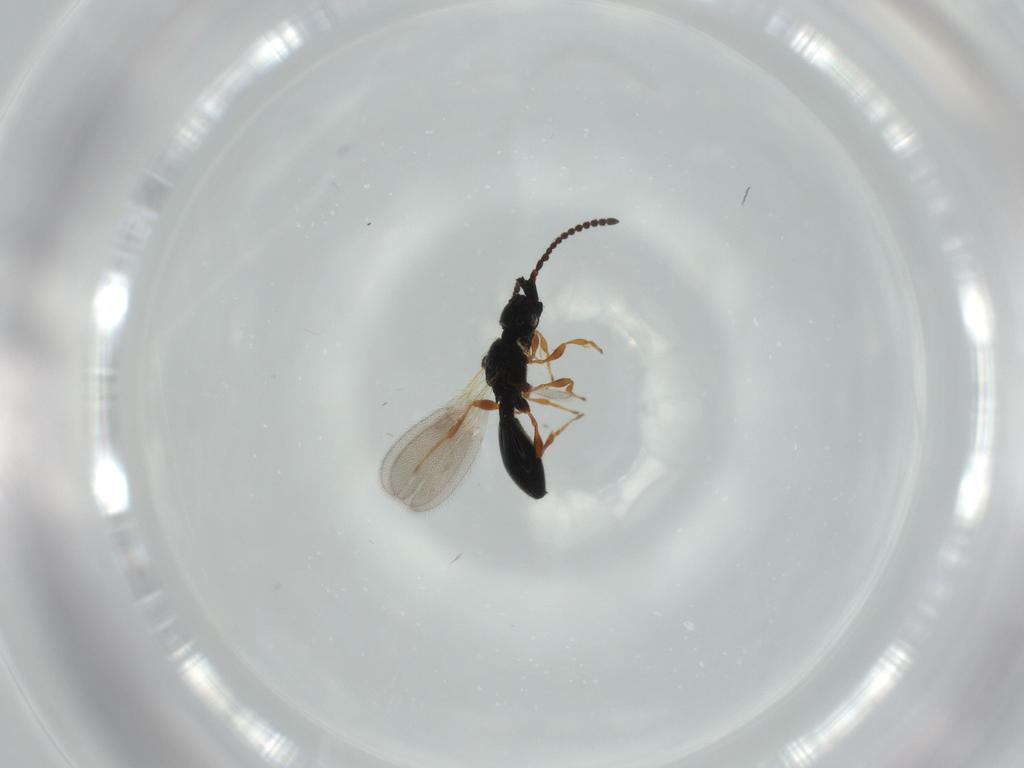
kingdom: Animalia
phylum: Arthropoda
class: Insecta
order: Hymenoptera
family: Diapriidae
